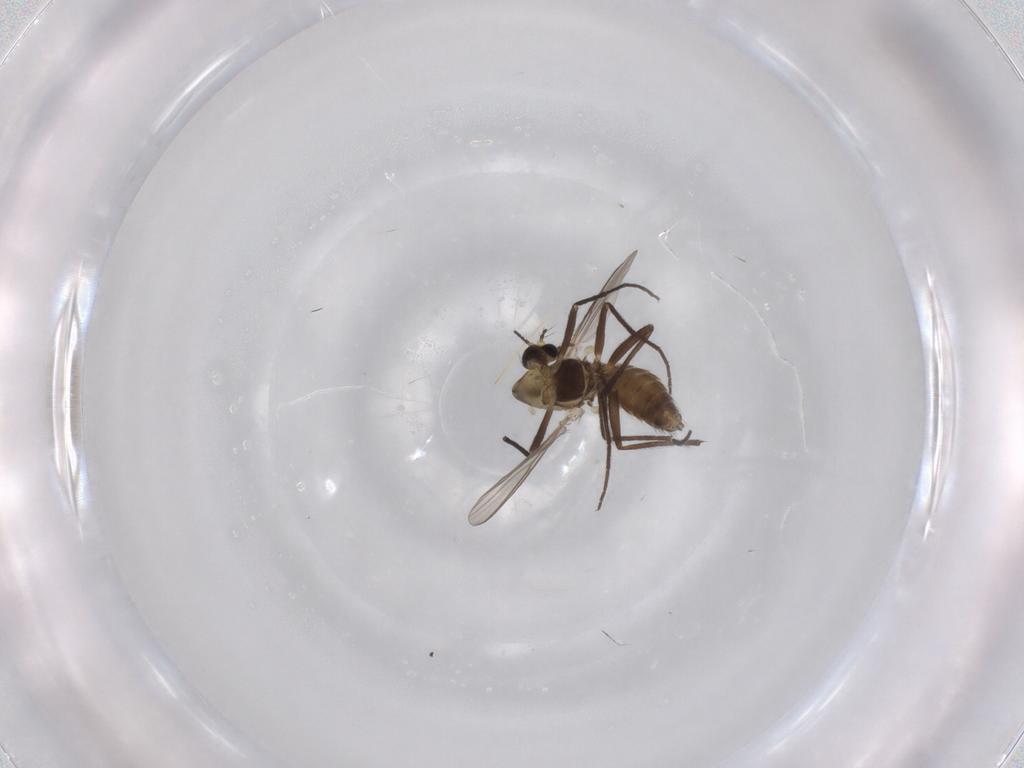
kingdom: Animalia
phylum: Arthropoda
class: Insecta
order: Diptera
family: Chironomidae
